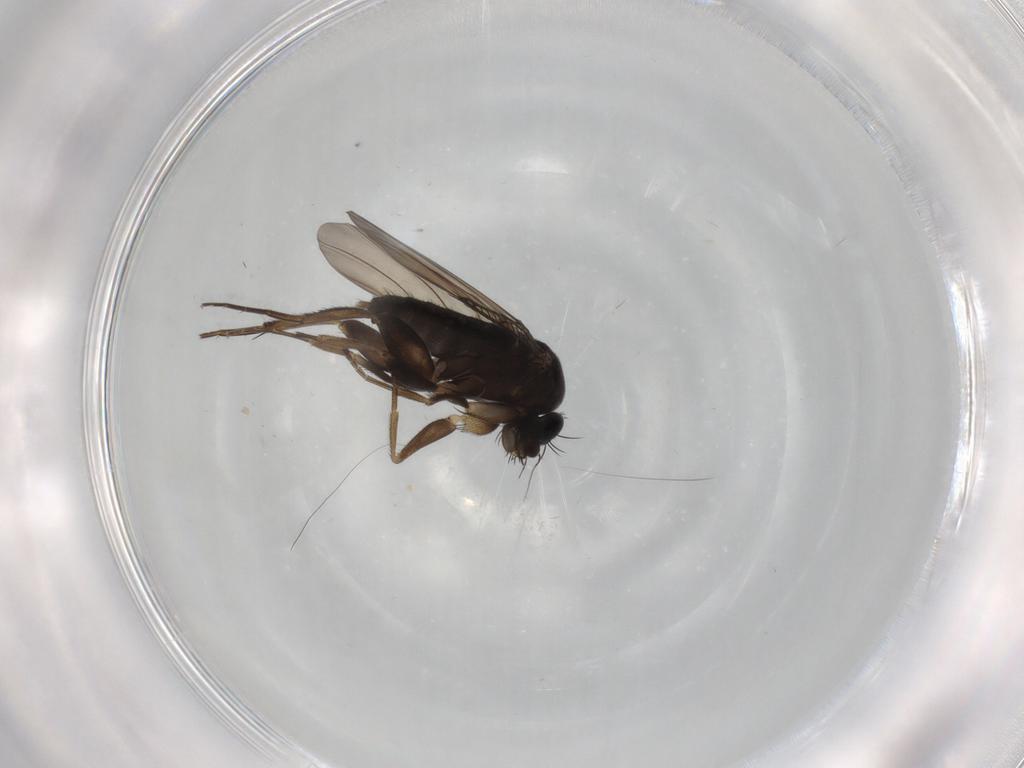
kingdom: Animalia
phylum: Arthropoda
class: Insecta
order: Diptera
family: Phoridae
